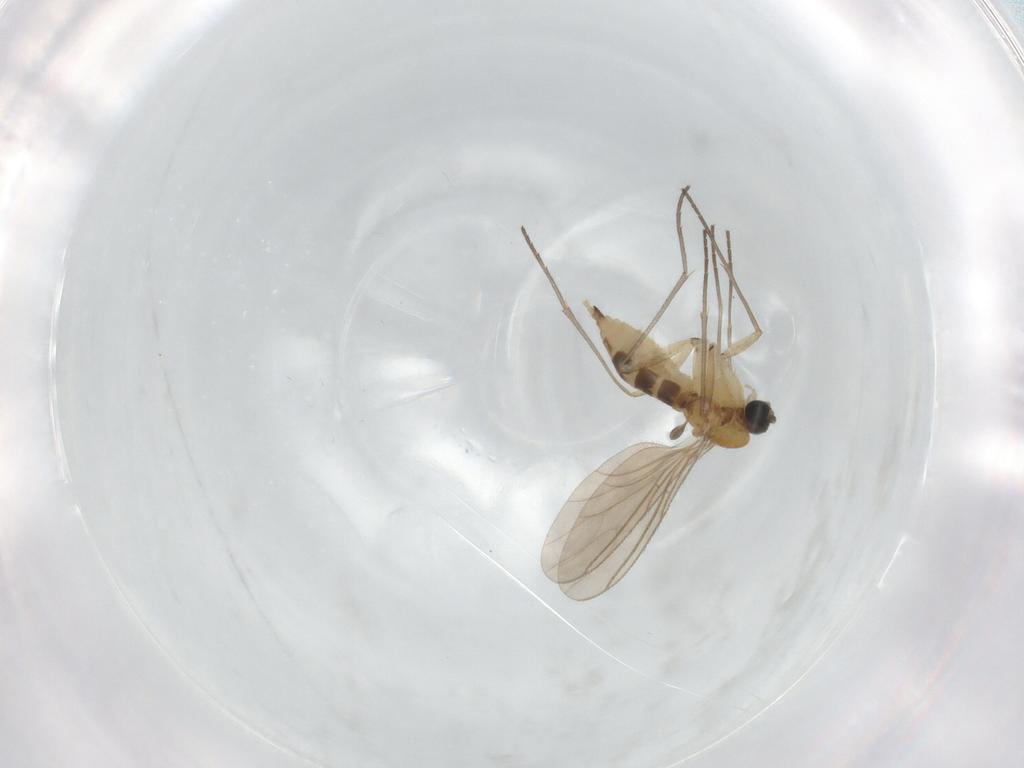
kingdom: Animalia
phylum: Arthropoda
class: Insecta
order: Diptera
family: Sciaridae
